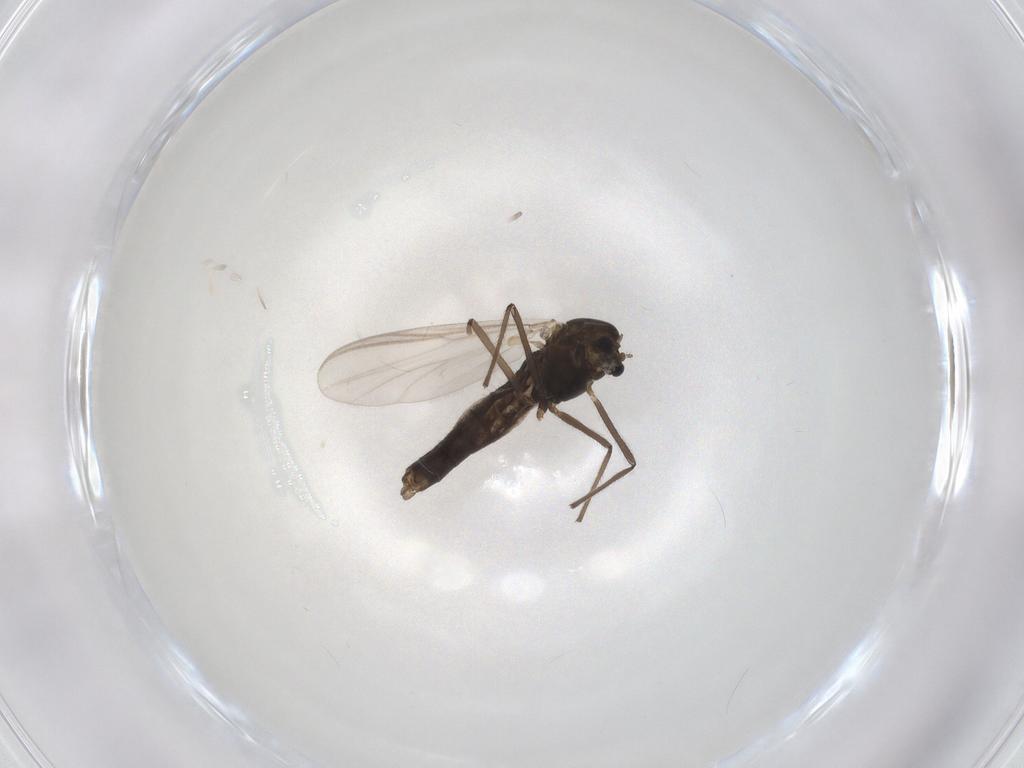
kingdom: Animalia
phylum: Arthropoda
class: Insecta
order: Diptera
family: Chironomidae
